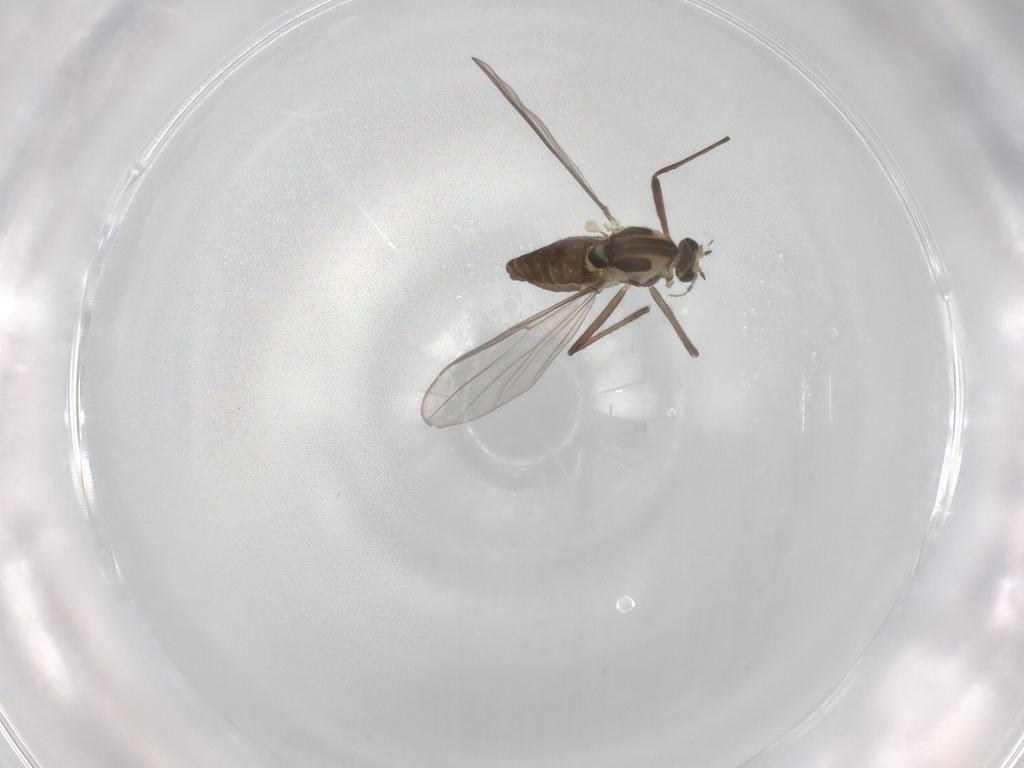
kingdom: Animalia
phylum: Arthropoda
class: Insecta
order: Diptera
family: Chironomidae
